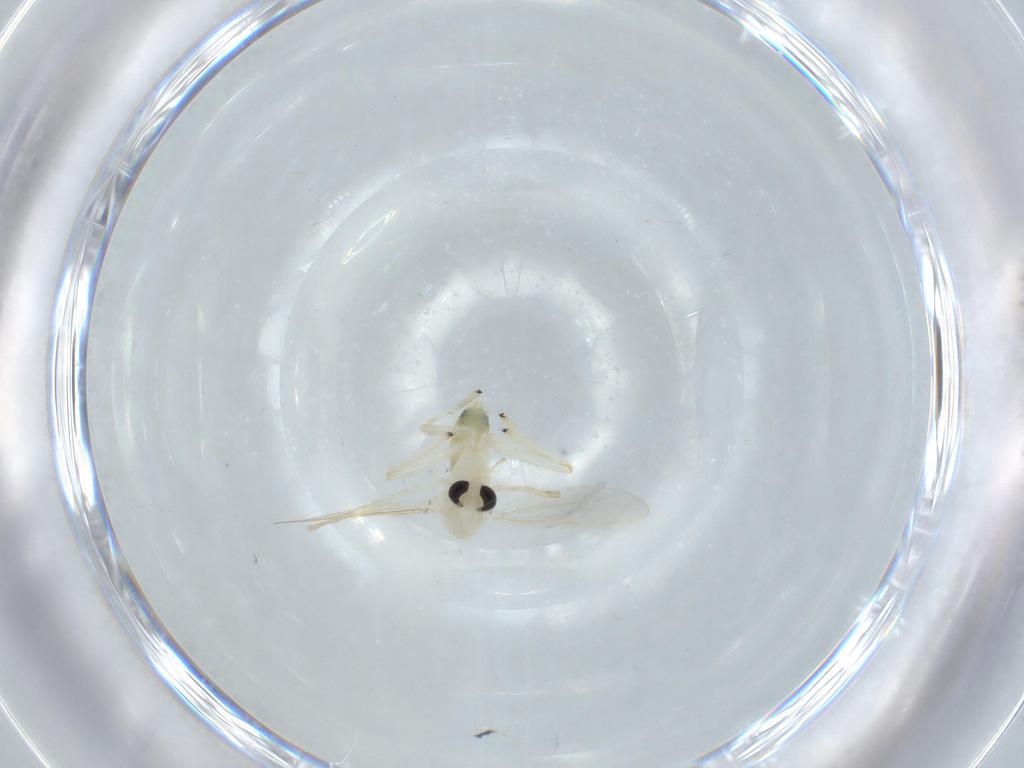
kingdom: Animalia
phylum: Arthropoda
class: Insecta
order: Diptera
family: Chironomidae
